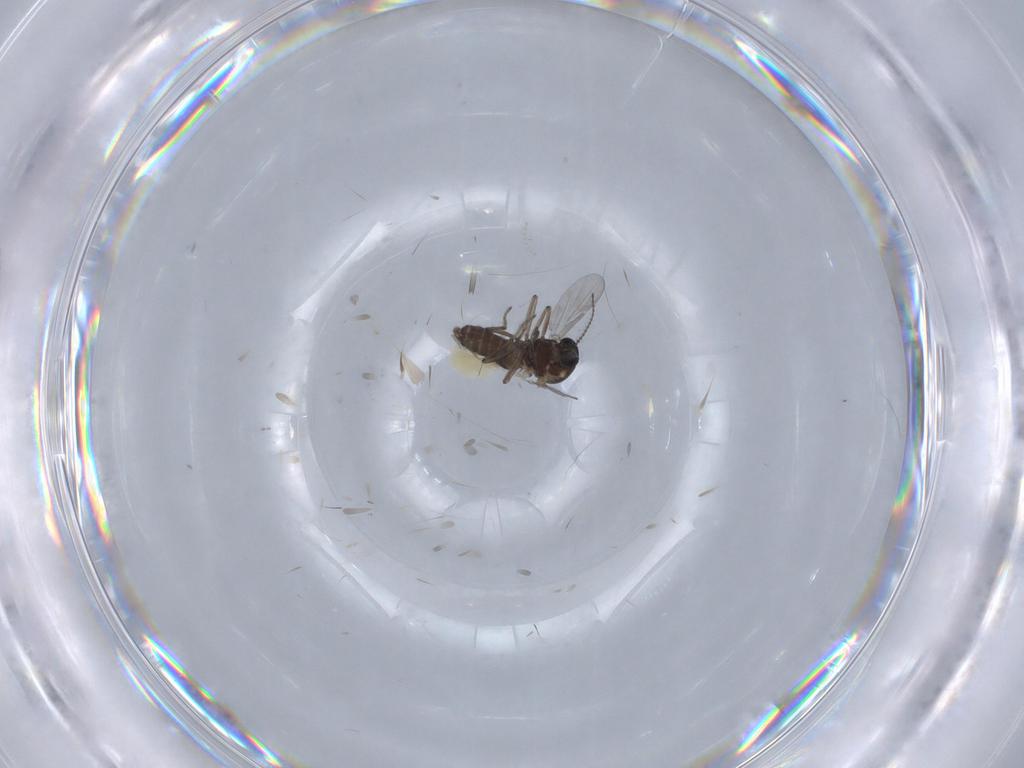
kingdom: Animalia
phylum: Arthropoda
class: Insecta
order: Diptera
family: Ceratopogonidae
